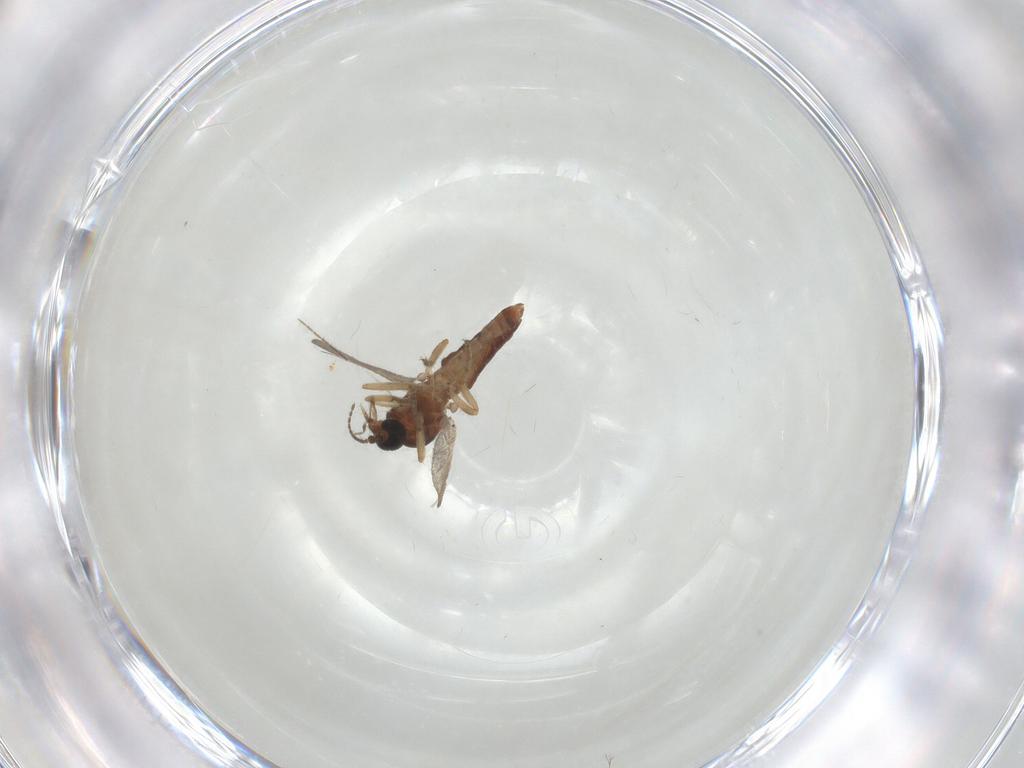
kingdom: Animalia
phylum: Arthropoda
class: Insecta
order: Diptera
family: Ceratopogonidae
